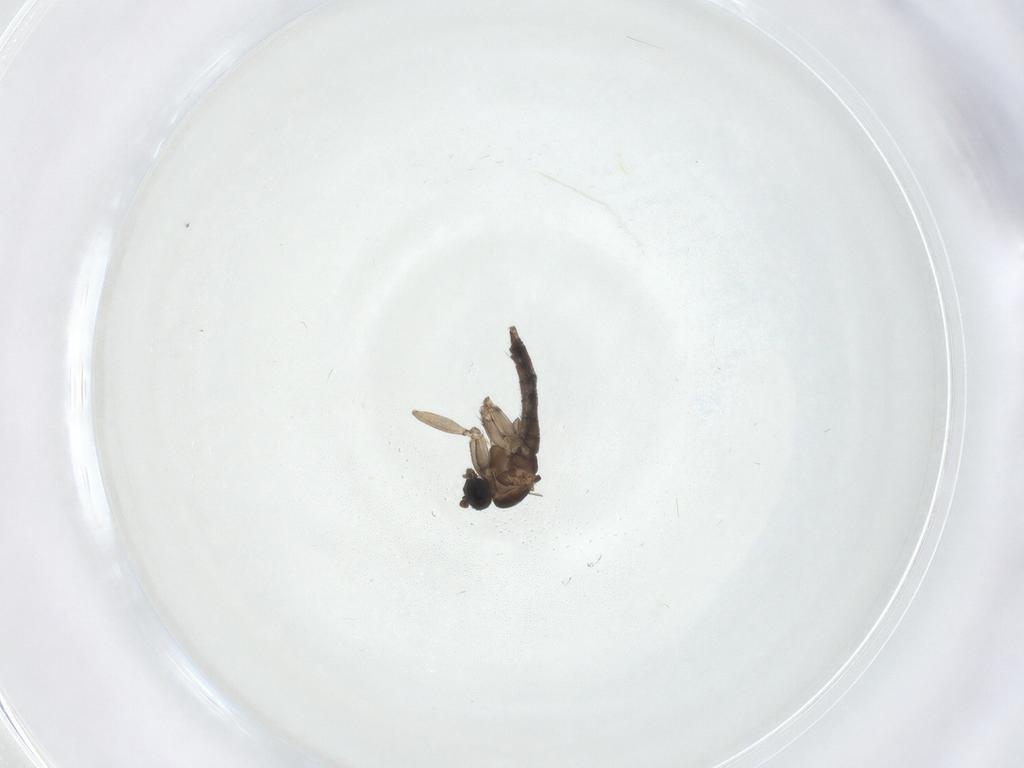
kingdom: Animalia
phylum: Arthropoda
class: Insecta
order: Diptera
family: Sciaridae
